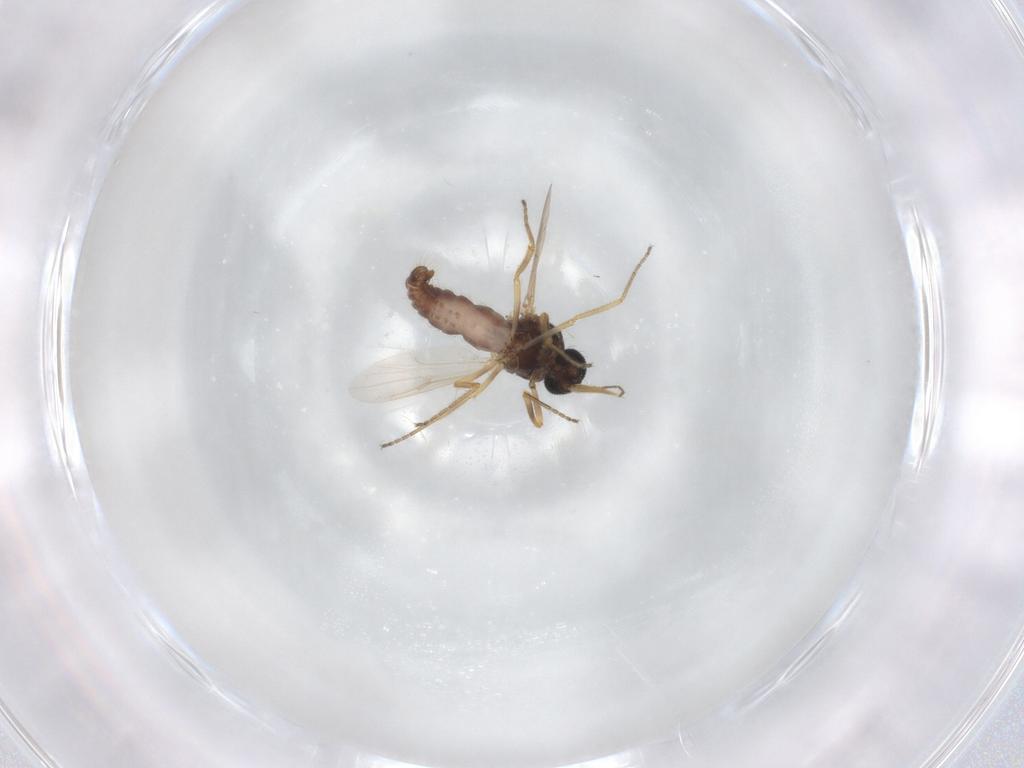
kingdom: Animalia
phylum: Arthropoda
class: Insecta
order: Diptera
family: Ceratopogonidae
